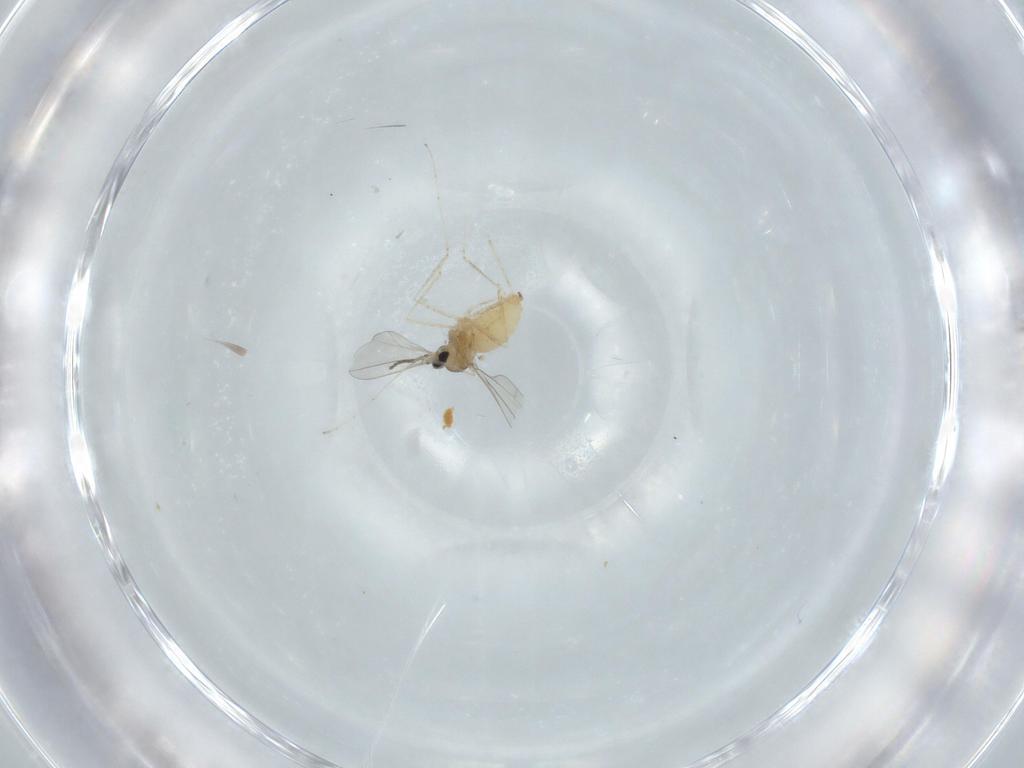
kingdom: Animalia
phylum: Arthropoda
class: Insecta
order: Diptera
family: Cecidomyiidae
